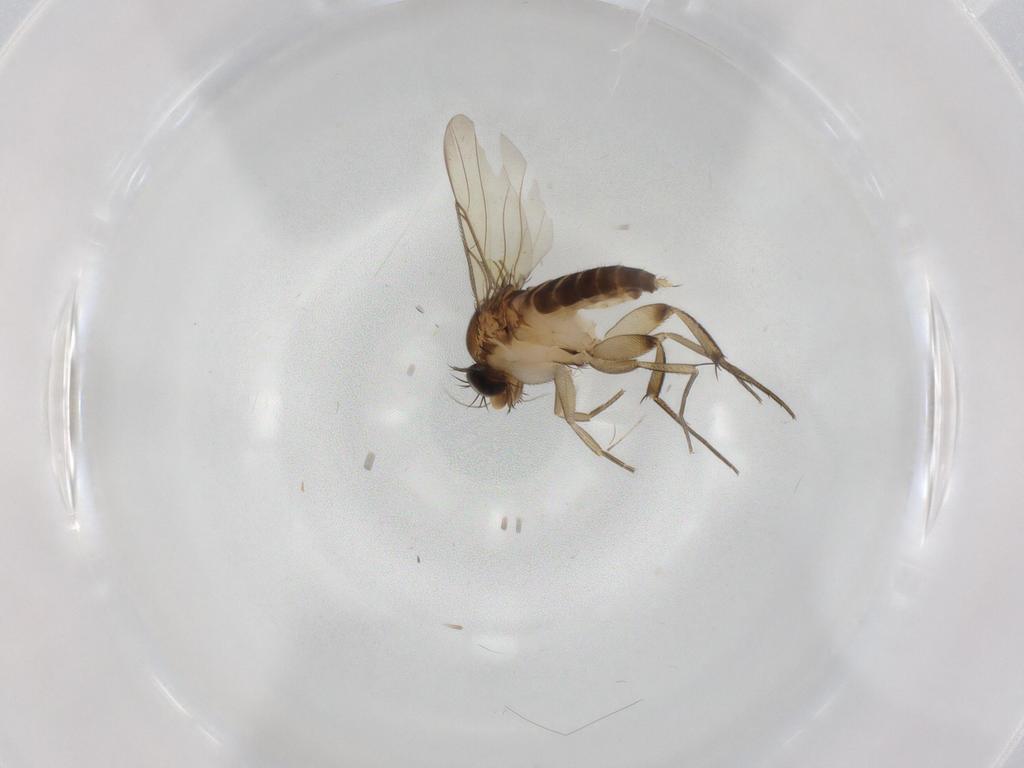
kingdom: Animalia
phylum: Arthropoda
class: Insecta
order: Diptera
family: Phoridae
